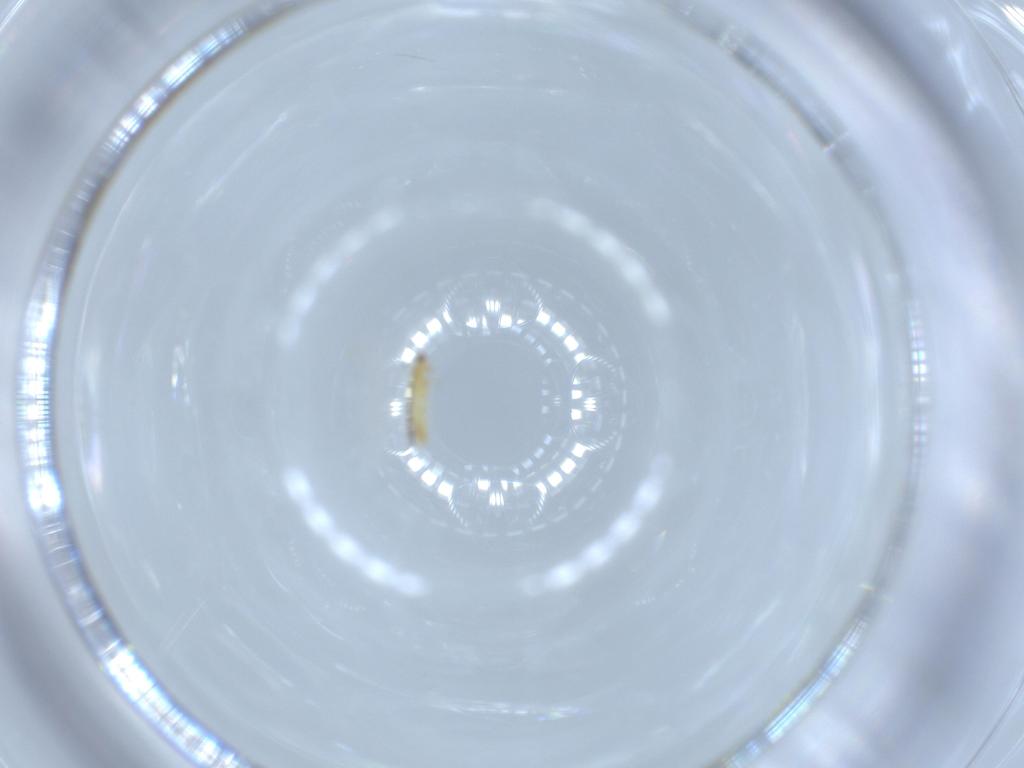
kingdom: Animalia
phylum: Arthropoda
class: Insecta
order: Thysanoptera
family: Thripidae
